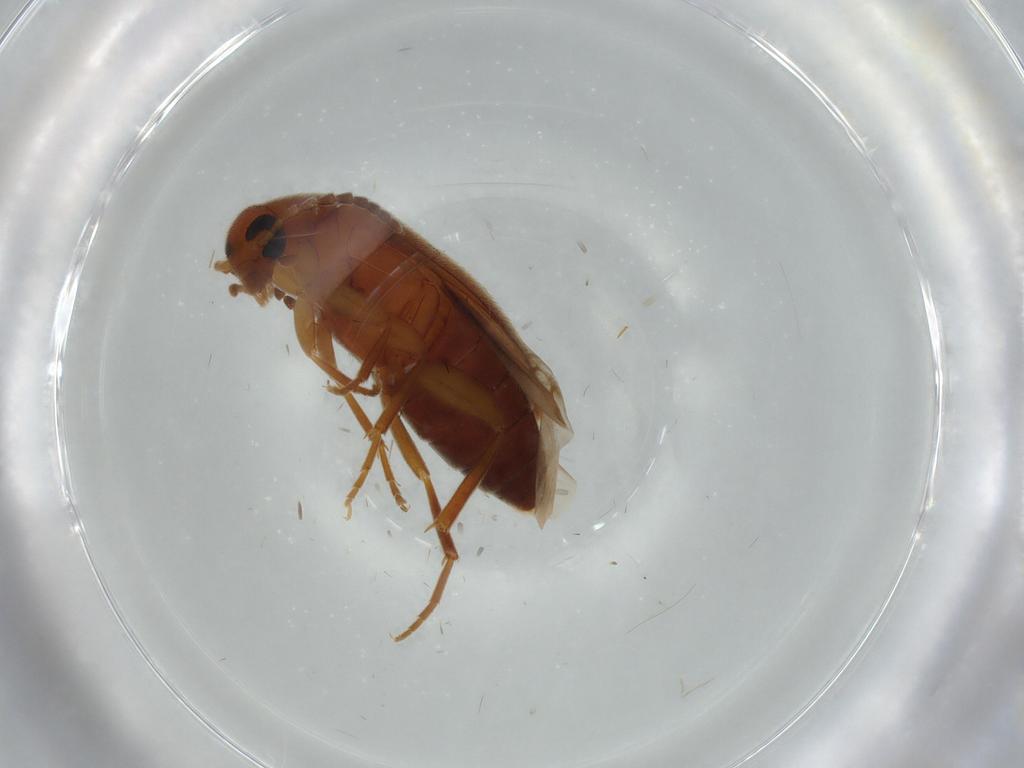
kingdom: Animalia
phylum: Arthropoda
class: Insecta
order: Coleoptera
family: Scraptiidae
